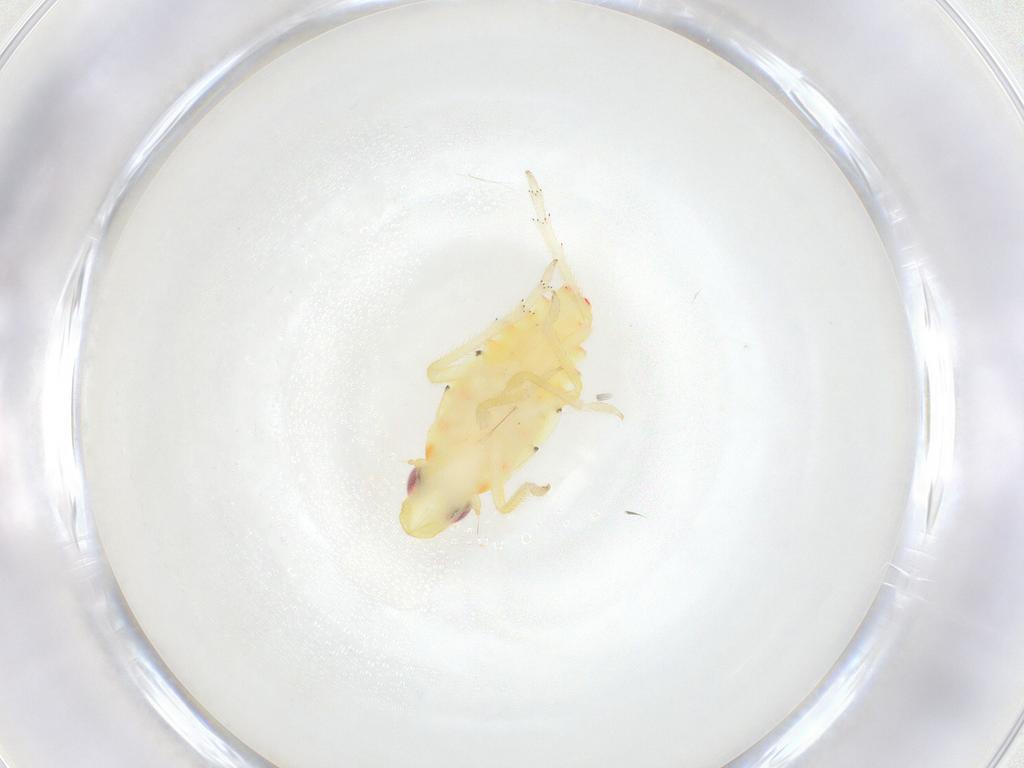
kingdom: Animalia
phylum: Arthropoda
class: Insecta
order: Hemiptera
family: Tropiduchidae
